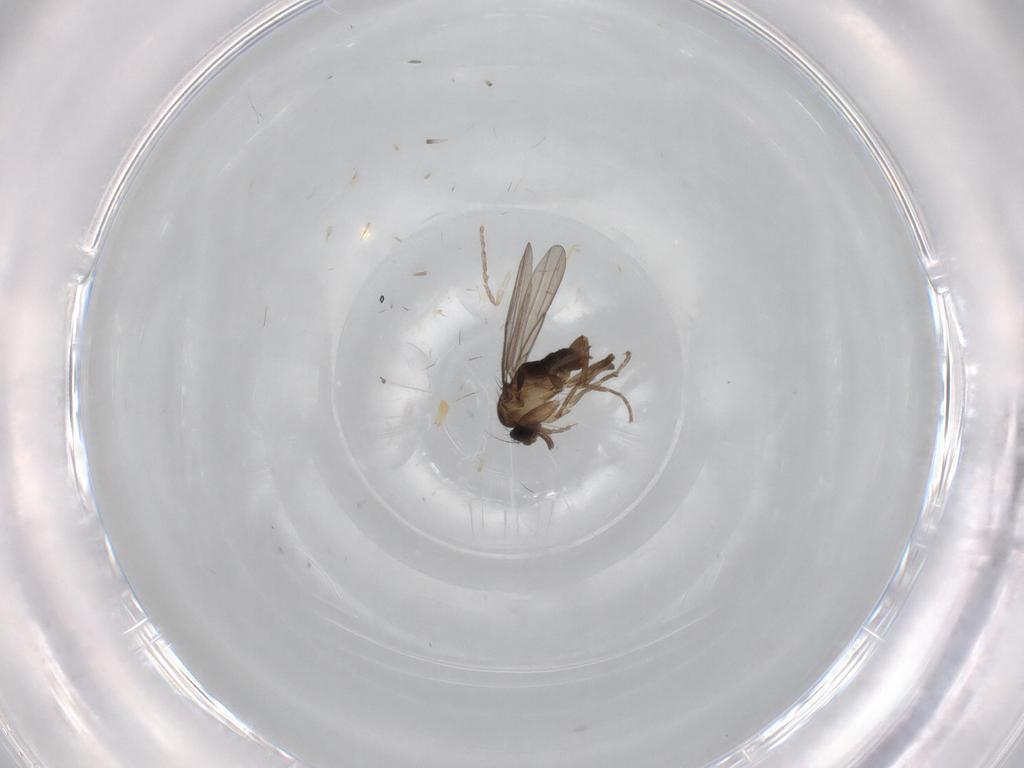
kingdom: Animalia
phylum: Arthropoda
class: Insecta
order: Diptera
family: Cecidomyiidae
